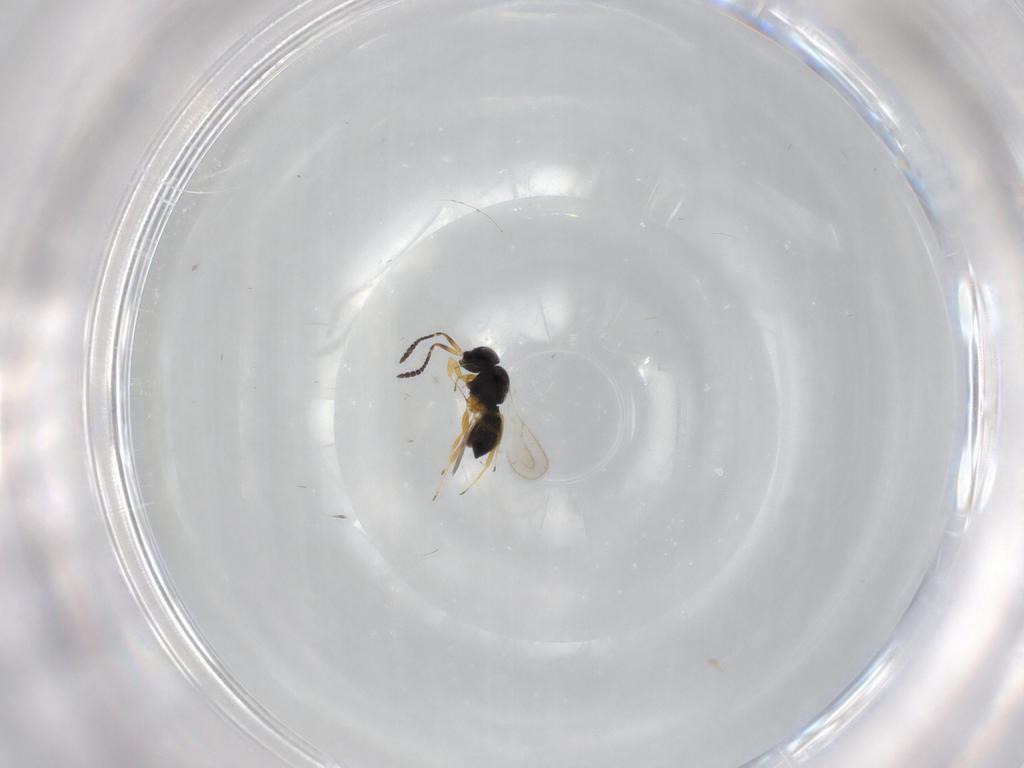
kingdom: Animalia
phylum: Arthropoda
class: Insecta
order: Hymenoptera
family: Scelionidae
